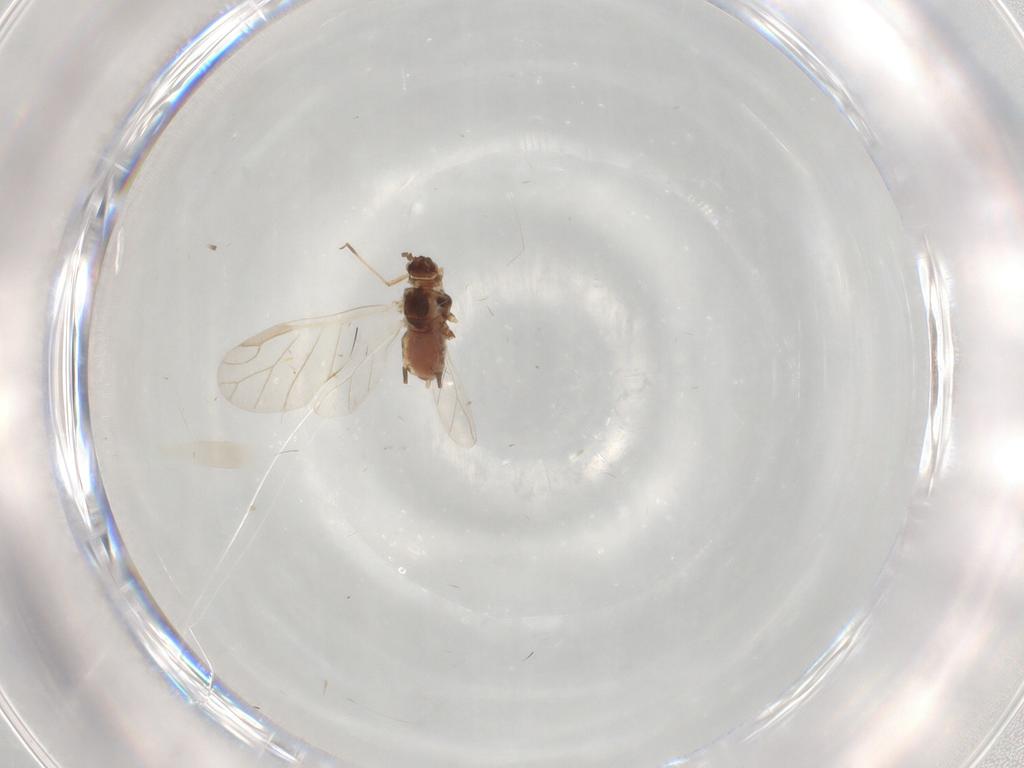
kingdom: Animalia
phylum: Arthropoda
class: Insecta
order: Hemiptera
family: Aphididae
